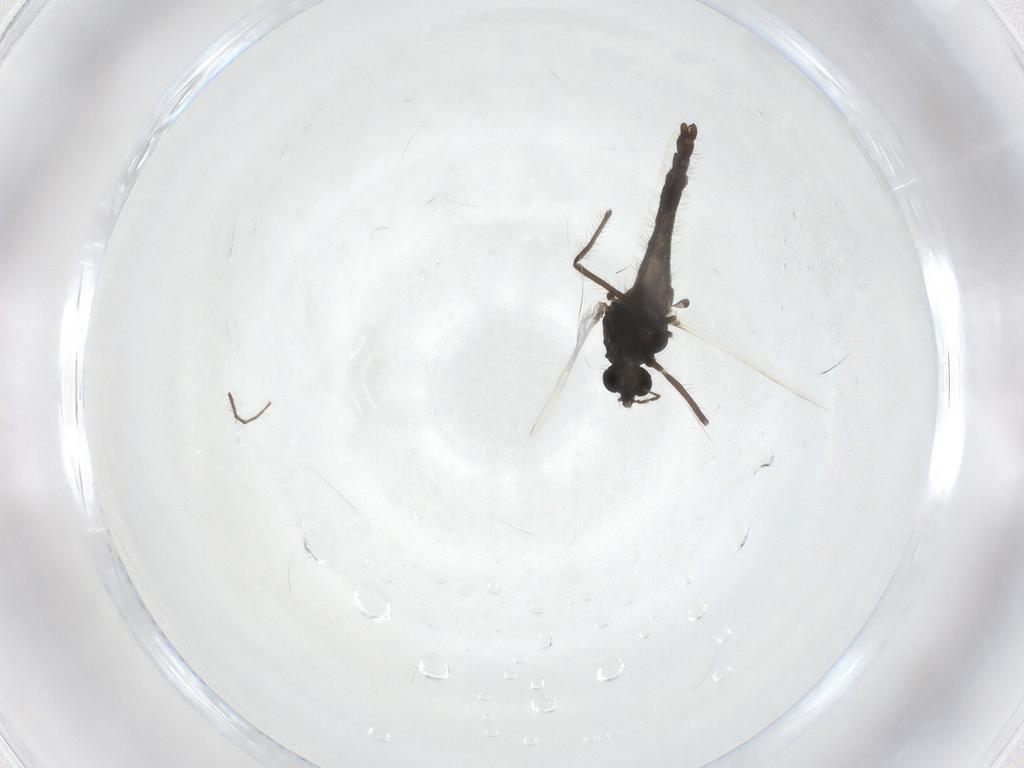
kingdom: Animalia
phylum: Arthropoda
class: Insecta
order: Diptera
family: Chironomidae
